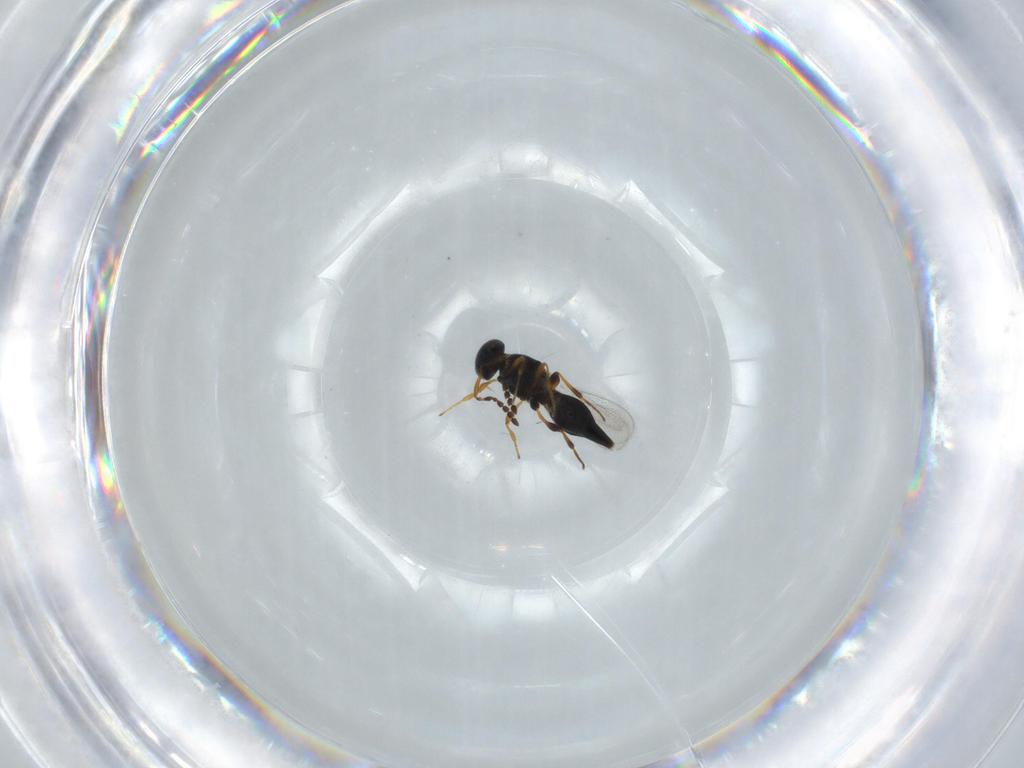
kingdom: Animalia
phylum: Arthropoda
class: Insecta
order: Hymenoptera
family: Platygastridae
